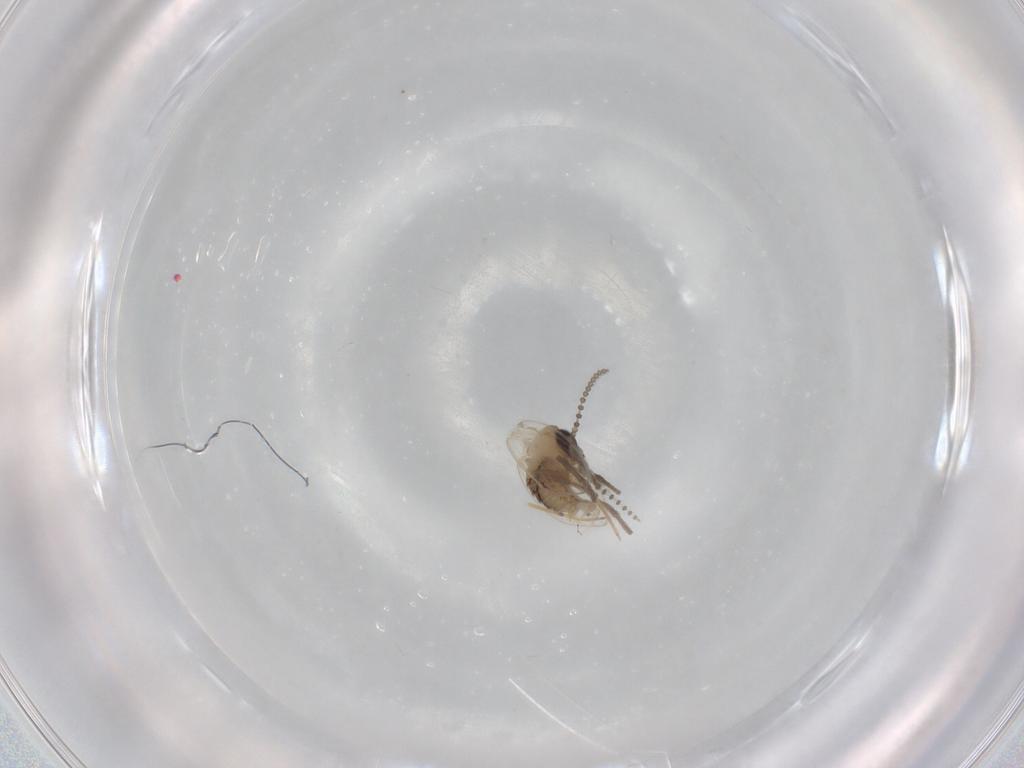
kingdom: Animalia
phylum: Arthropoda
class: Insecta
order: Diptera
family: Psychodidae
